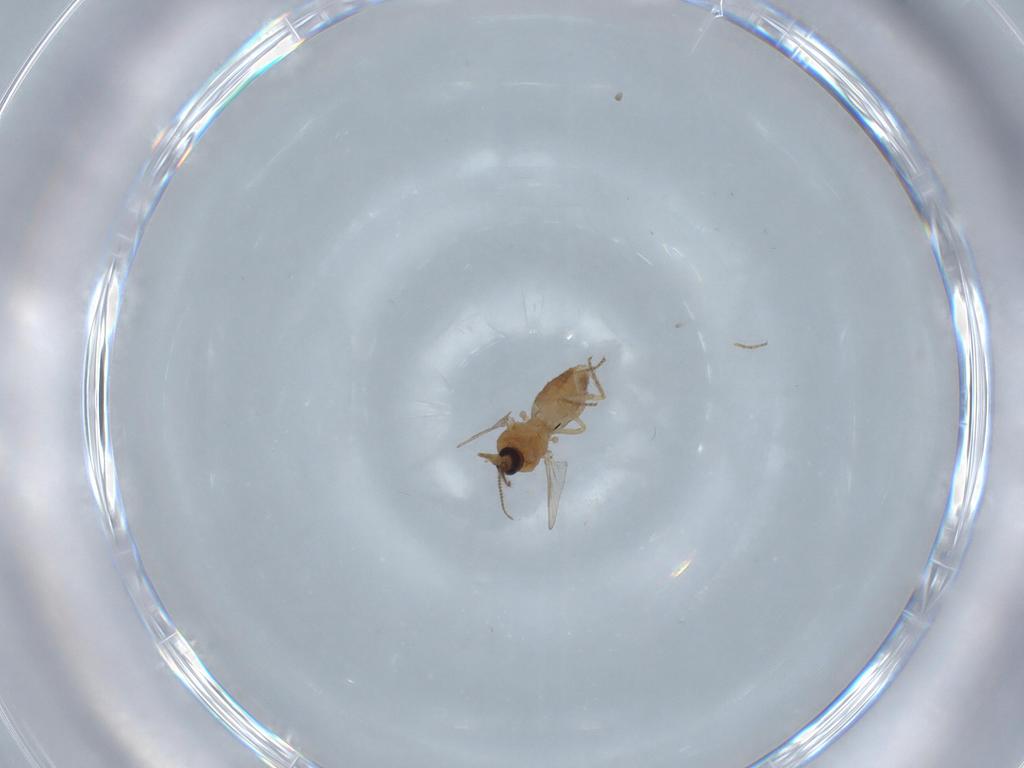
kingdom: Animalia
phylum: Arthropoda
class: Insecta
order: Diptera
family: Ceratopogonidae
